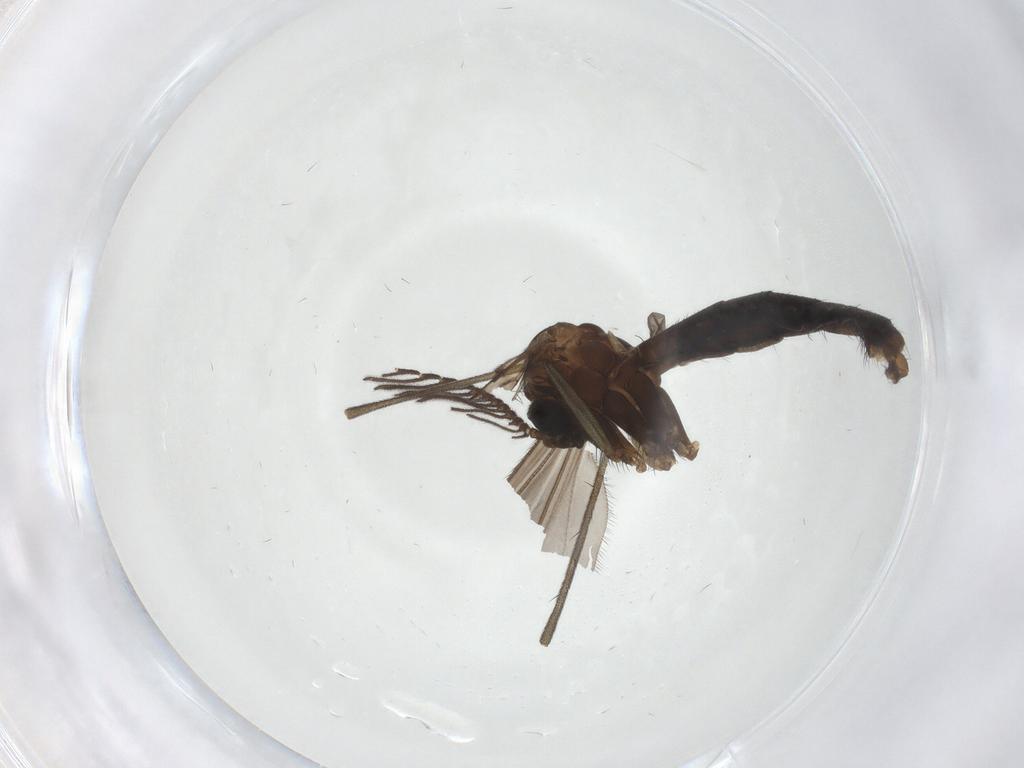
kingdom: Animalia
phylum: Arthropoda
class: Insecta
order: Diptera
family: Ditomyiidae
